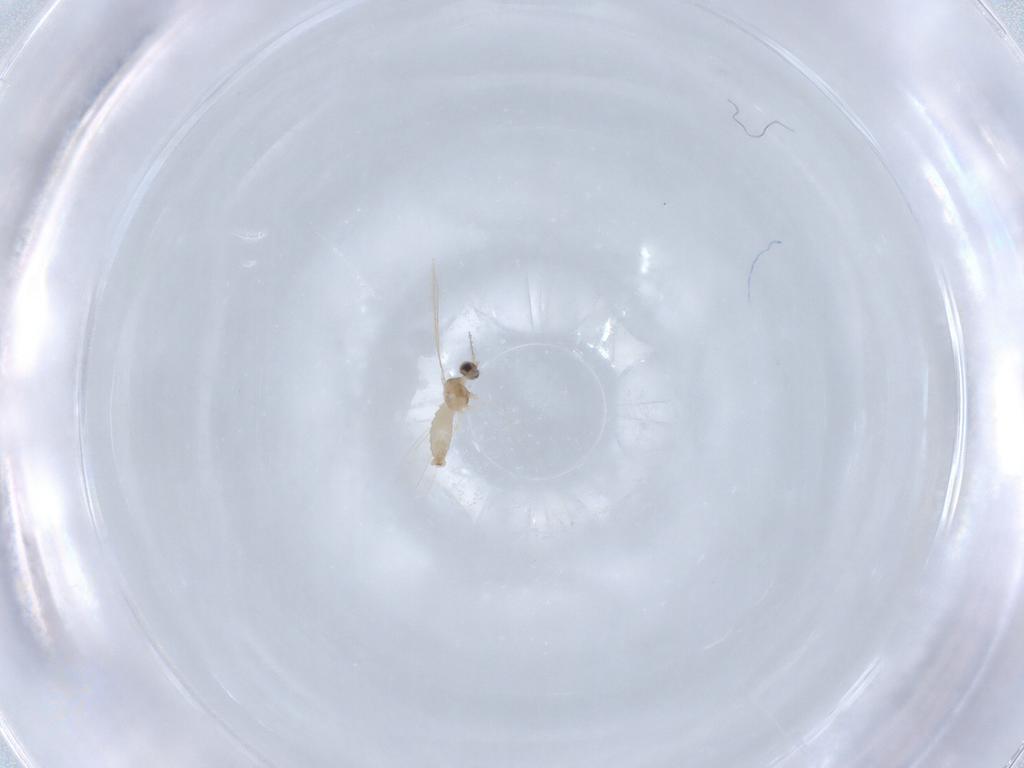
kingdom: Animalia
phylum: Arthropoda
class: Insecta
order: Diptera
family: Cecidomyiidae
